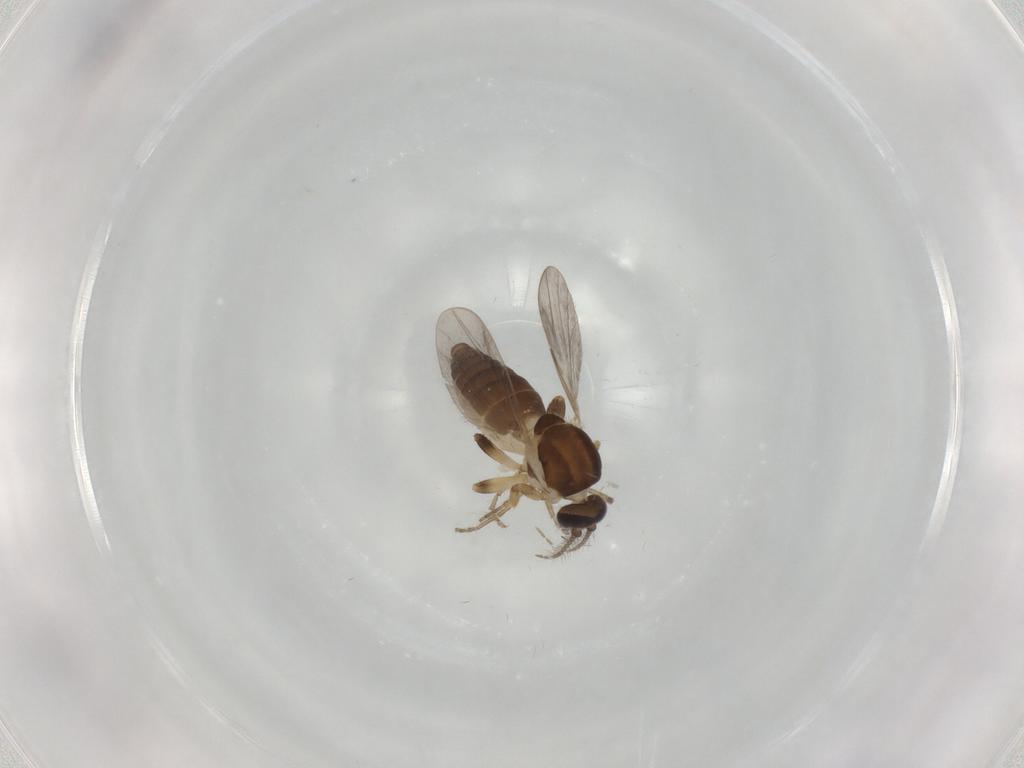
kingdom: Animalia
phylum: Arthropoda
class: Insecta
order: Diptera
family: Ceratopogonidae
